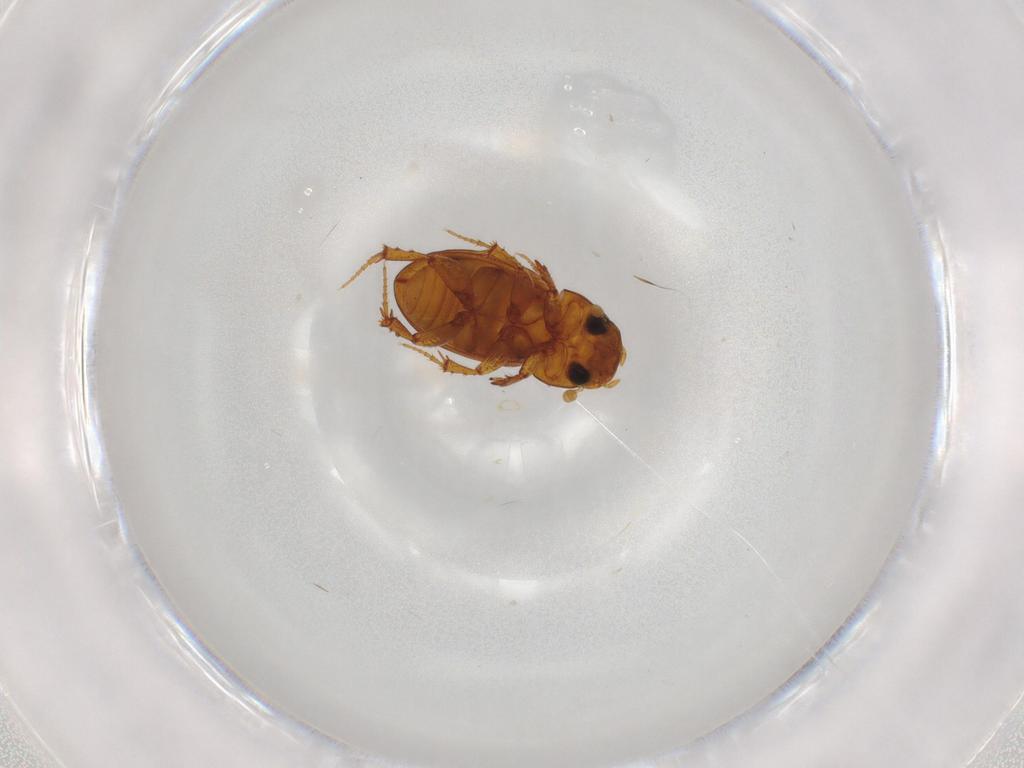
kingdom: Animalia
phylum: Arthropoda
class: Insecta
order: Coleoptera
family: Scarabaeidae
